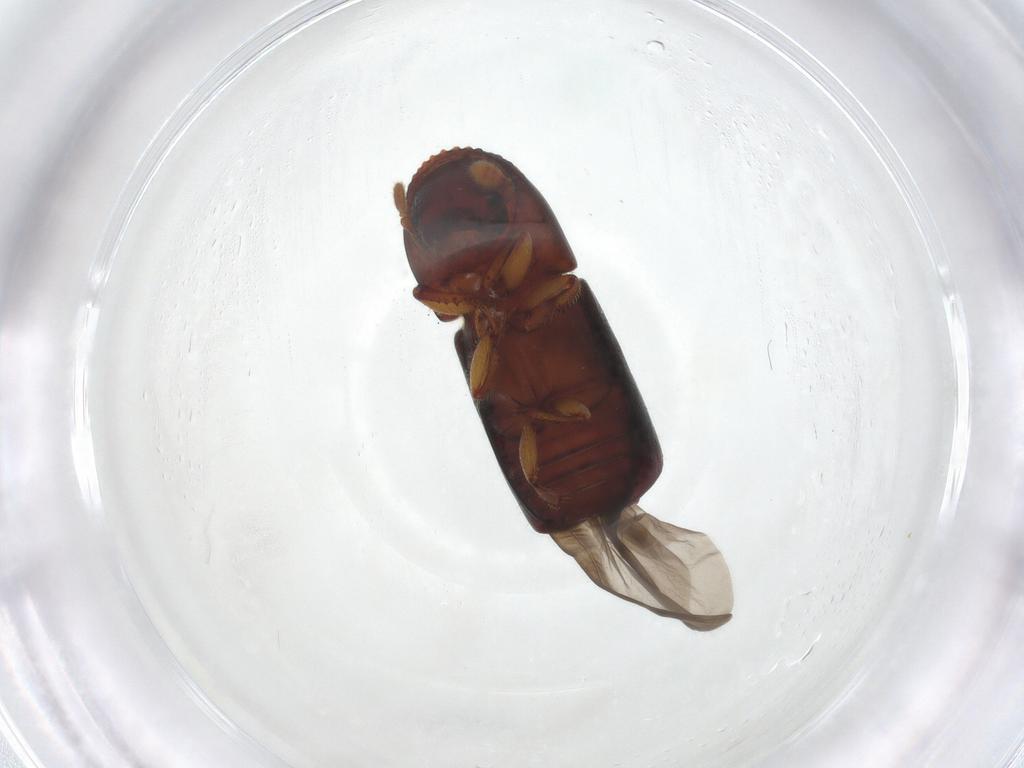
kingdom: Animalia
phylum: Arthropoda
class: Insecta
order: Coleoptera
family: Curculionidae
